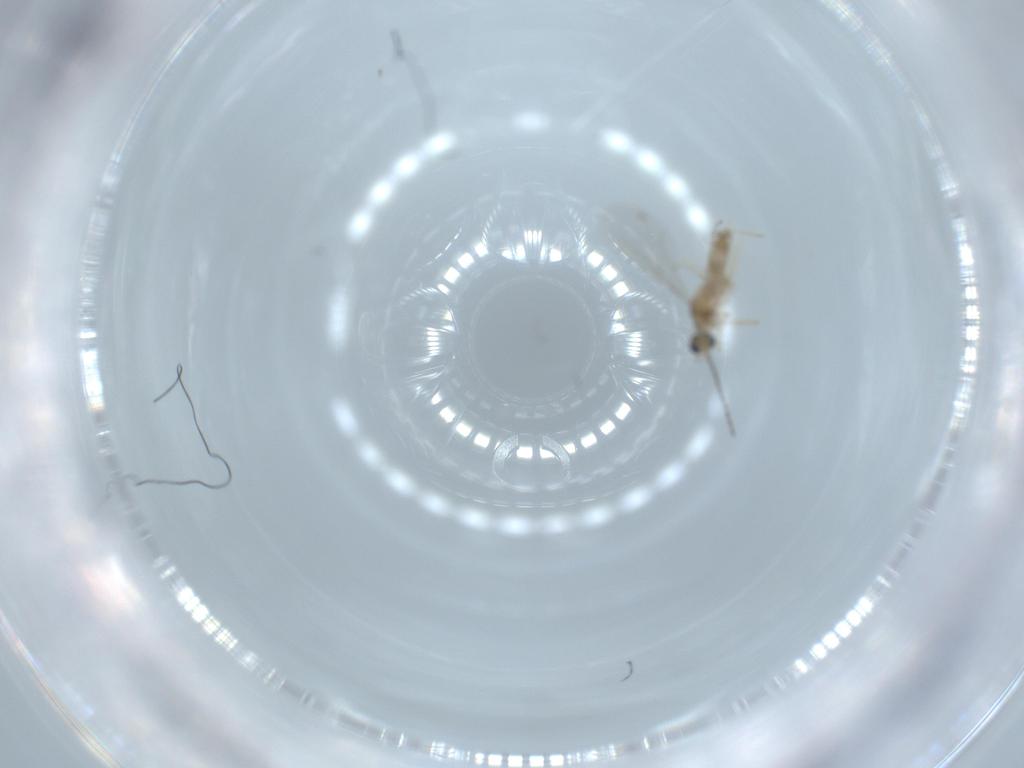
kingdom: Animalia
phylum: Arthropoda
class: Insecta
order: Diptera
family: Cecidomyiidae
